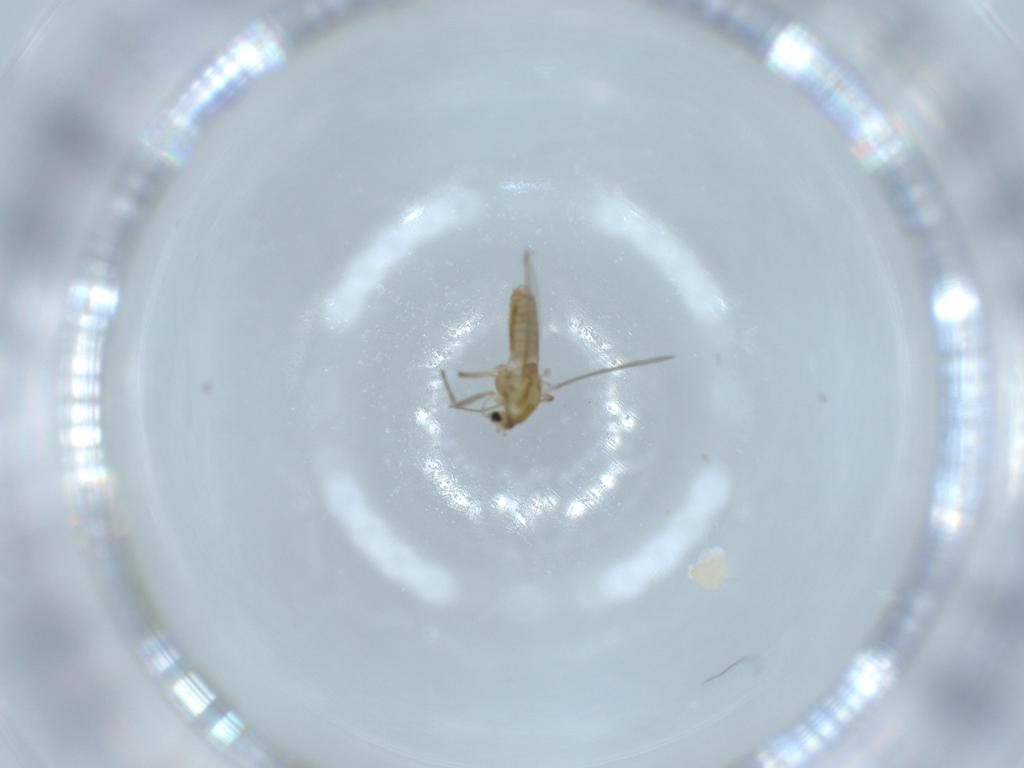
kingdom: Animalia
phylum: Arthropoda
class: Insecta
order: Diptera
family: Chironomidae
